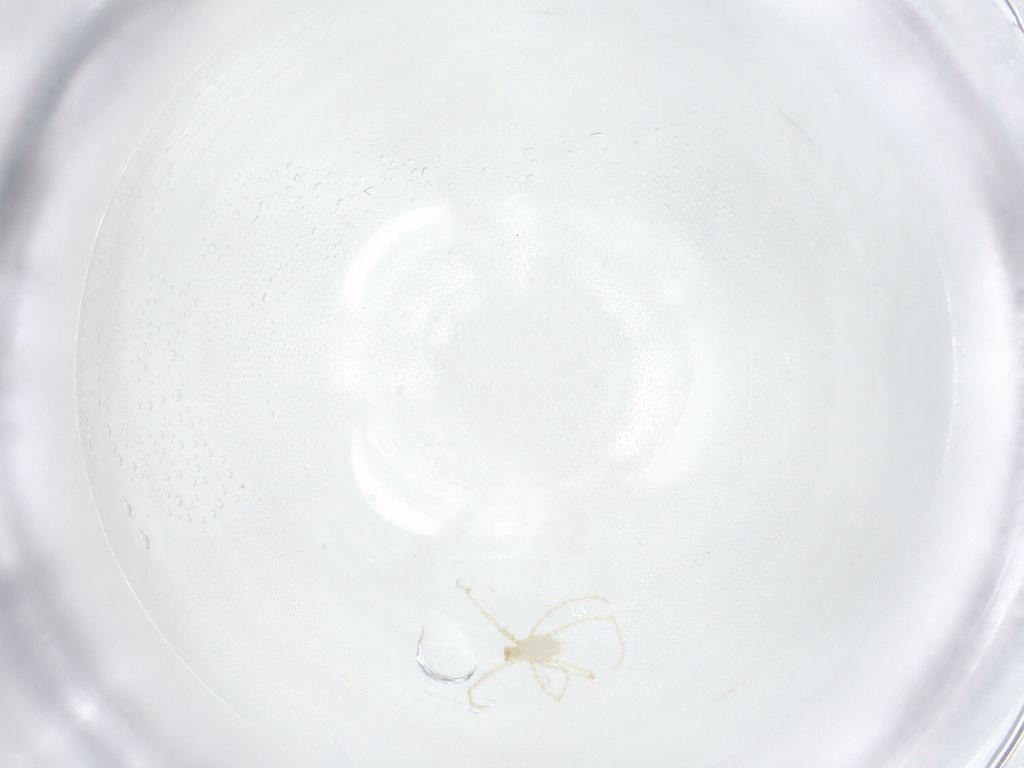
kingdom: Animalia
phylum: Arthropoda
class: Arachnida
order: Trombidiformes
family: Erythraeidae
